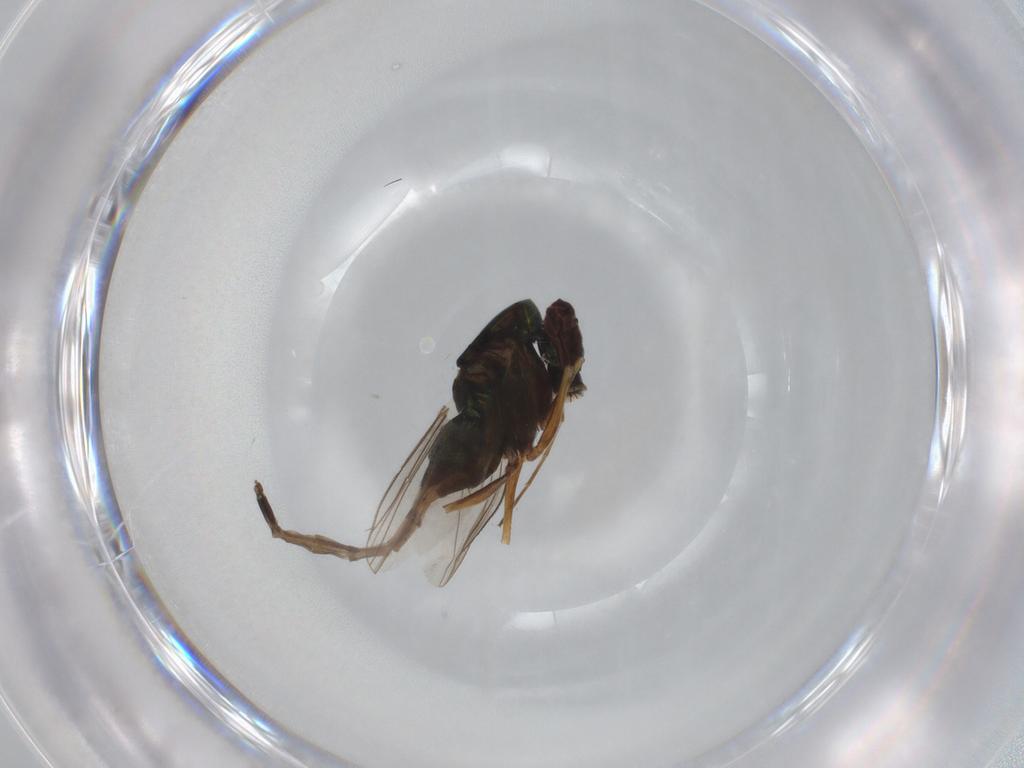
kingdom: Animalia
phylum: Arthropoda
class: Insecta
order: Diptera
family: Dolichopodidae
